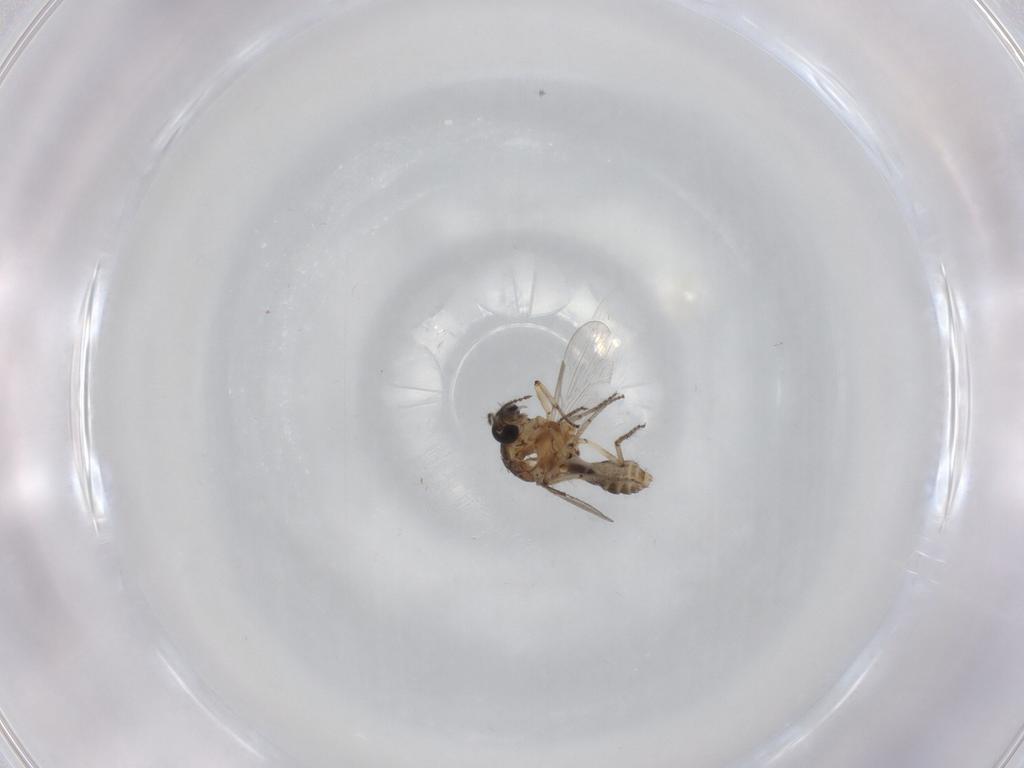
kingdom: Animalia
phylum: Arthropoda
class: Insecta
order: Diptera
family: Ceratopogonidae
